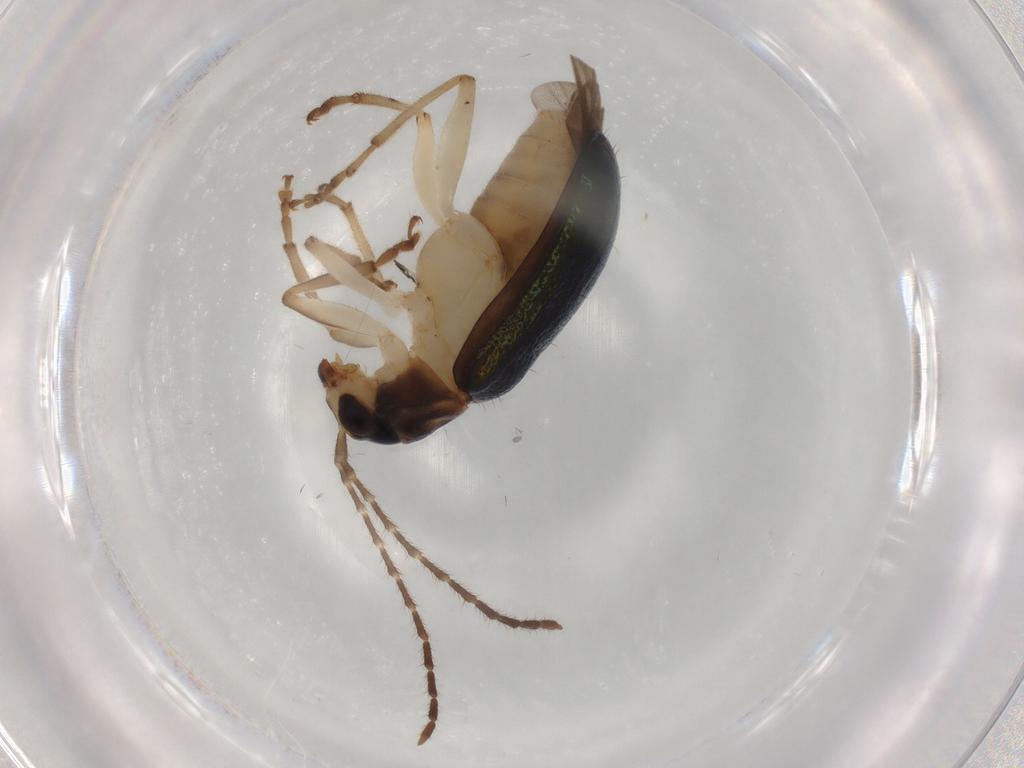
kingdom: Animalia
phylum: Arthropoda
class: Insecta
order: Coleoptera
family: Chrysomelidae
